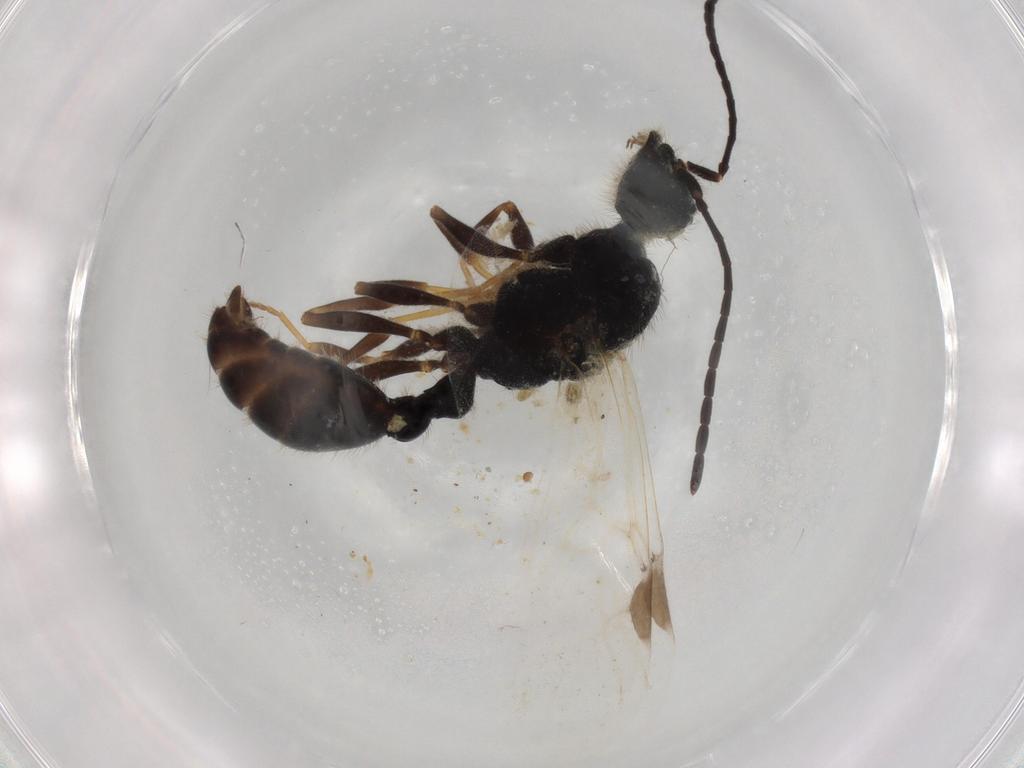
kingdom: Animalia
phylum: Arthropoda
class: Insecta
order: Hymenoptera
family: Formicidae
